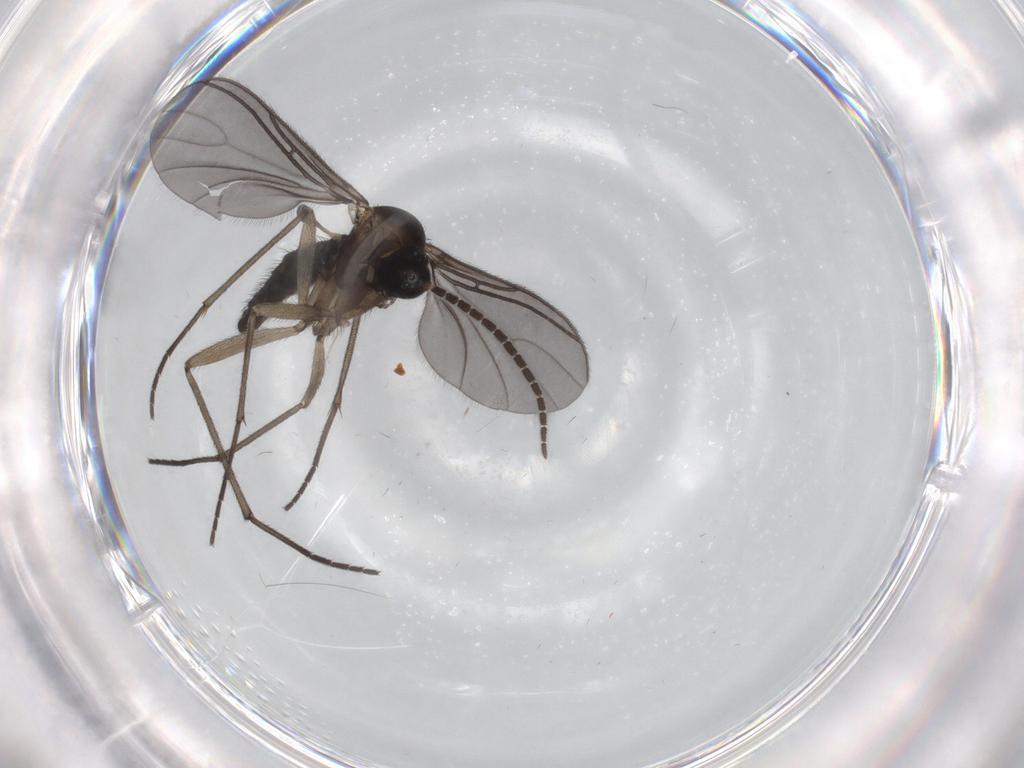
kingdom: Animalia
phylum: Arthropoda
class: Insecta
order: Diptera
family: Sciaridae
